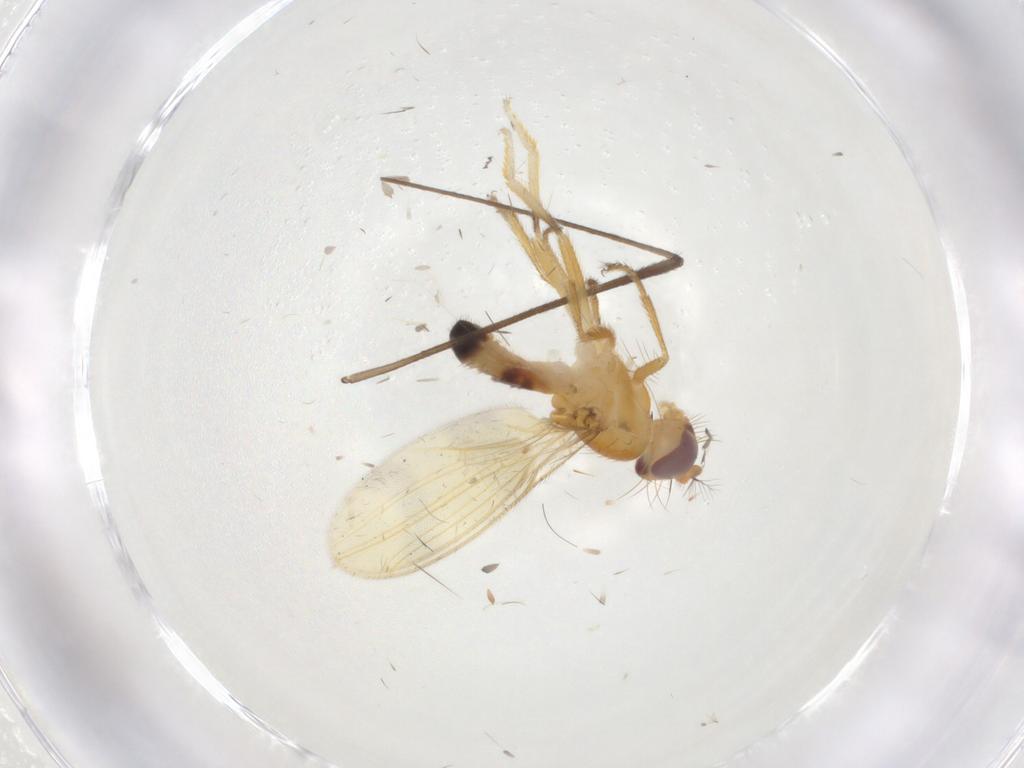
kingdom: Animalia
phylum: Arthropoda
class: Insecta
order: Diptera
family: Periscelididae
